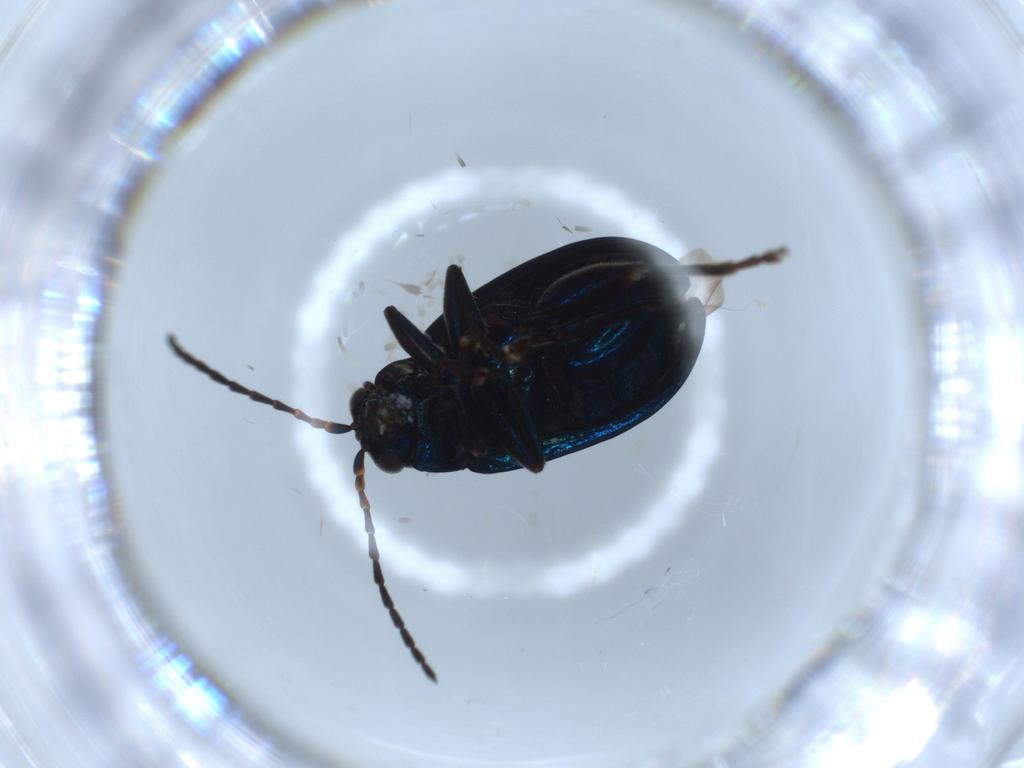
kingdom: Animalia
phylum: Arthropoda
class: Insecta
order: Coleoptera
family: Chrysomelidae
